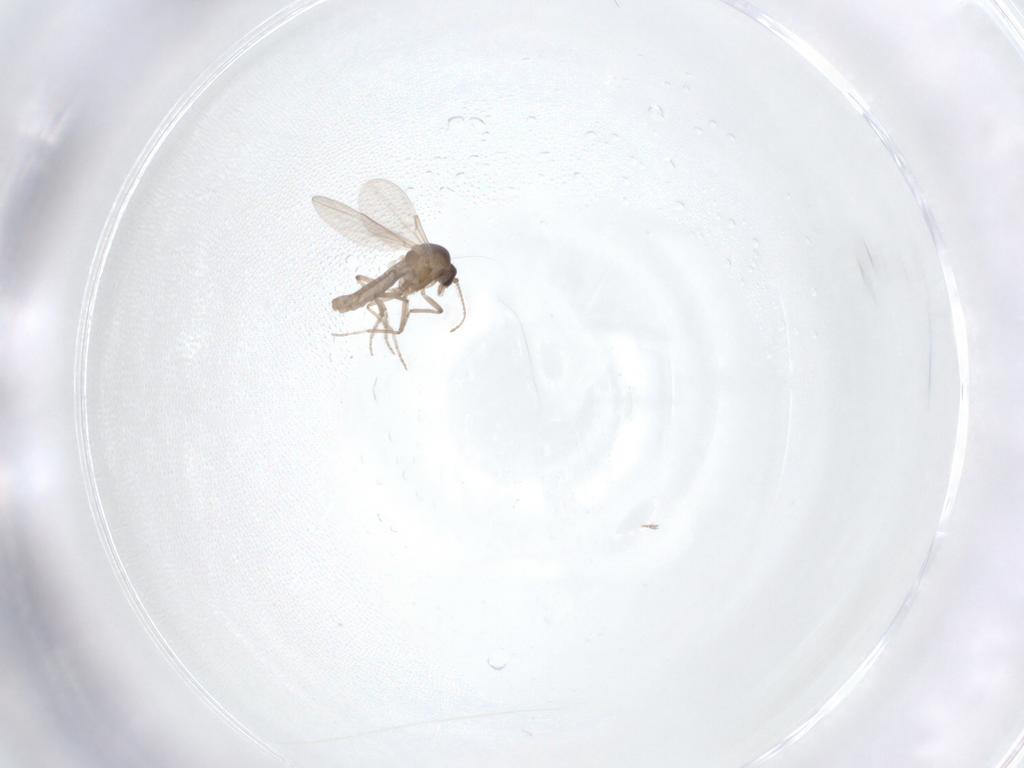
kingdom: Animalia
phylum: Arthropoda
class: Insecta
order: Diptera
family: Ceratopogonidae
